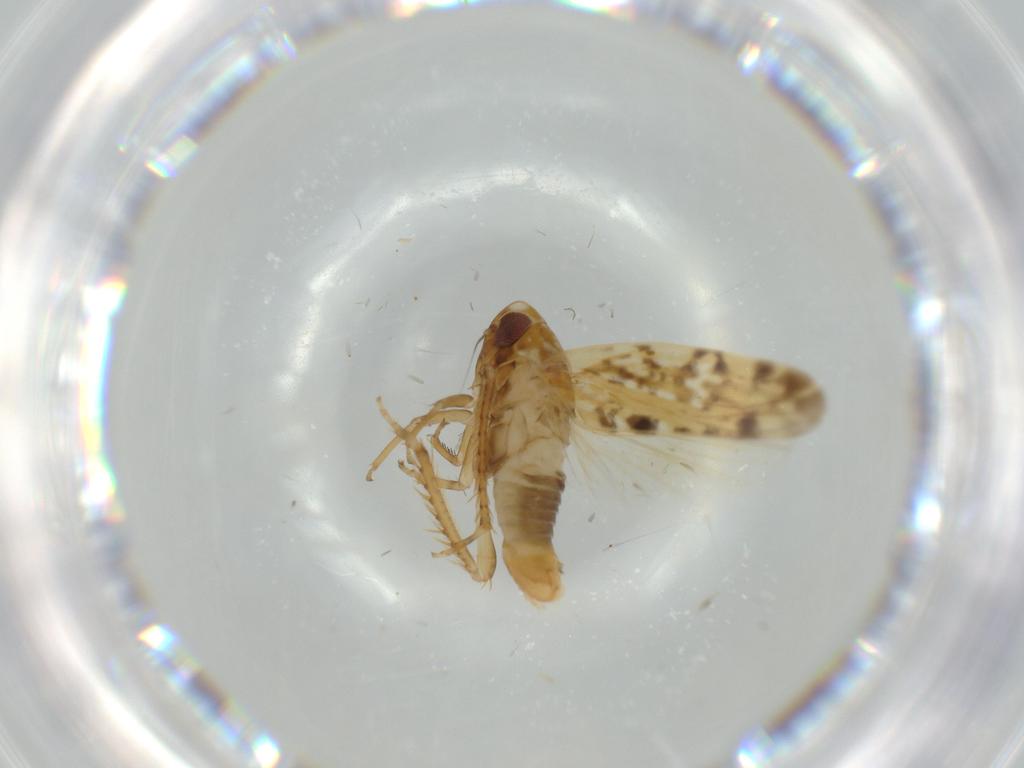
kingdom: Animalia
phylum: Arthropoda
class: Insecta
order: Hemiptera
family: Cicadellidae
